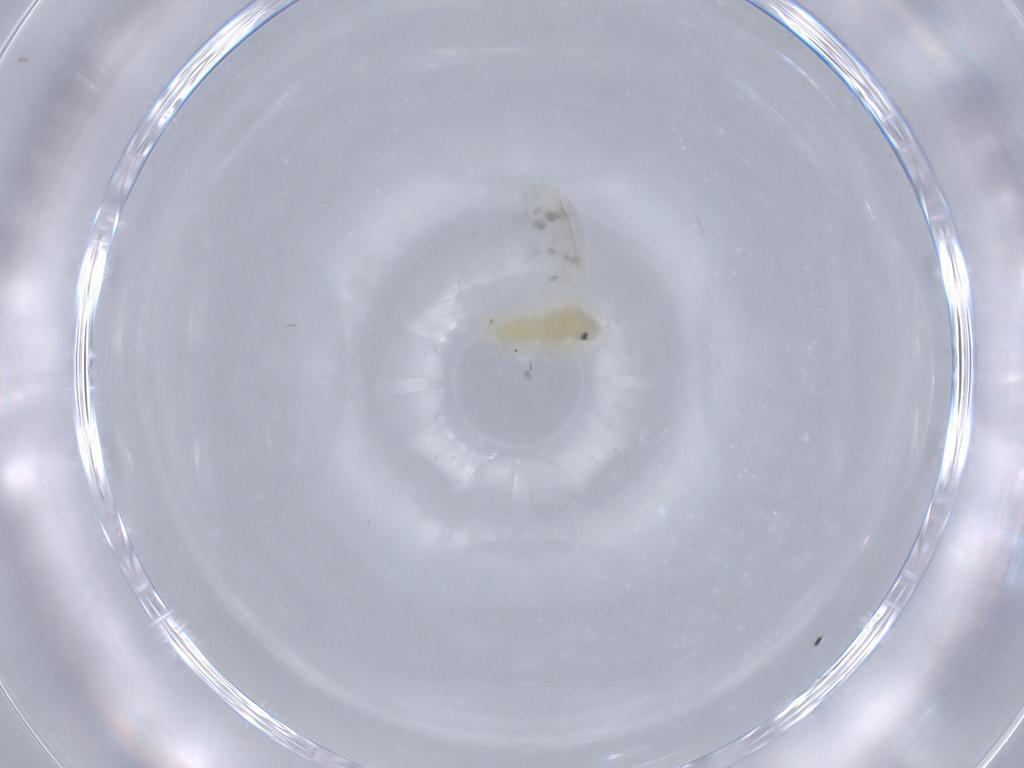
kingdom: Animalia
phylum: Arthropoda
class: Insecta
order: Hemiptera
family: Aleyrodidae
